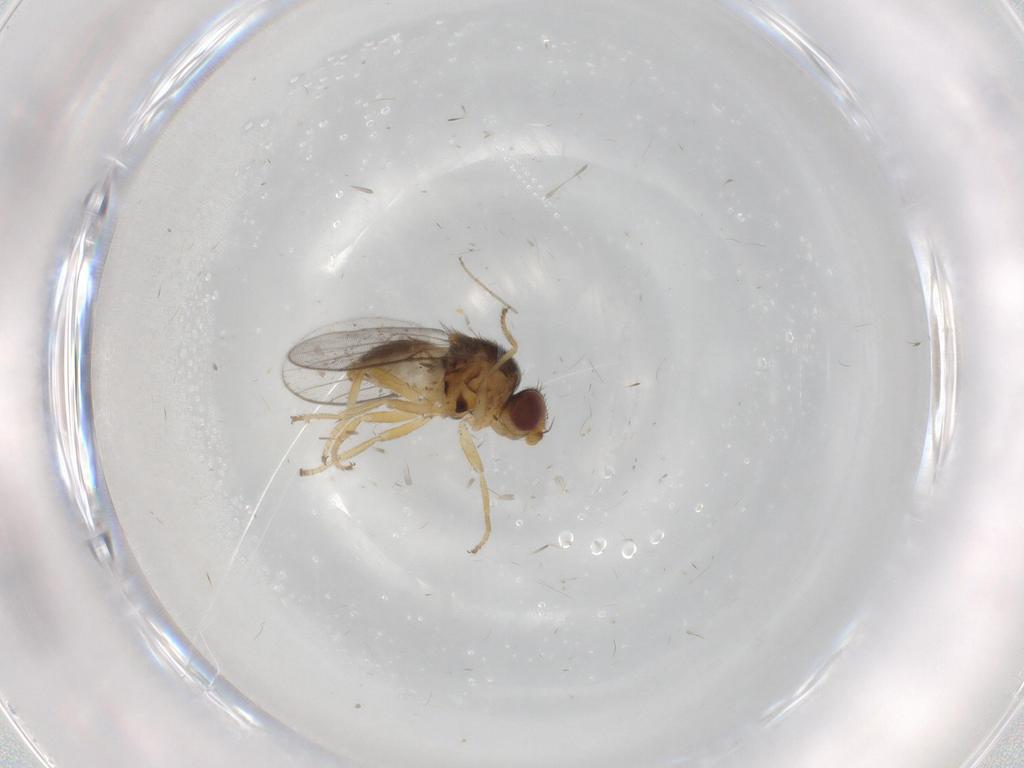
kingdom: Animalia
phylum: Arthropoda
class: Insecta
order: Diptera
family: Chloropidae
